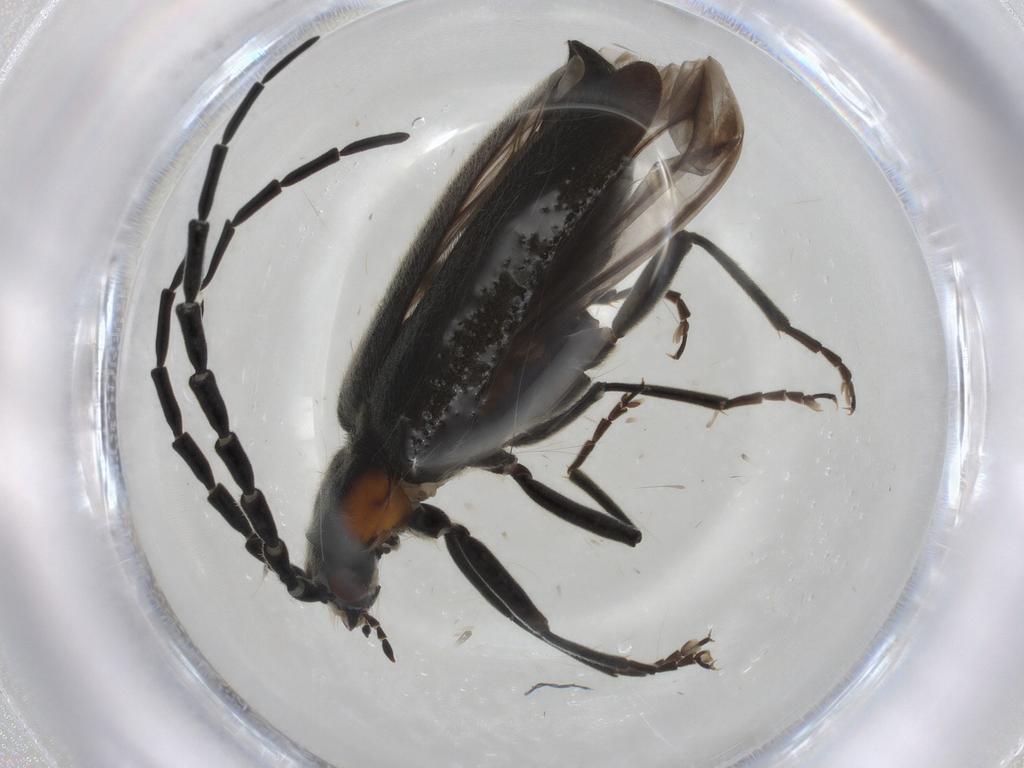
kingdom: Animalia
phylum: Arthropoda
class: Insecta
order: Coleoptera
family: Cantharidae
